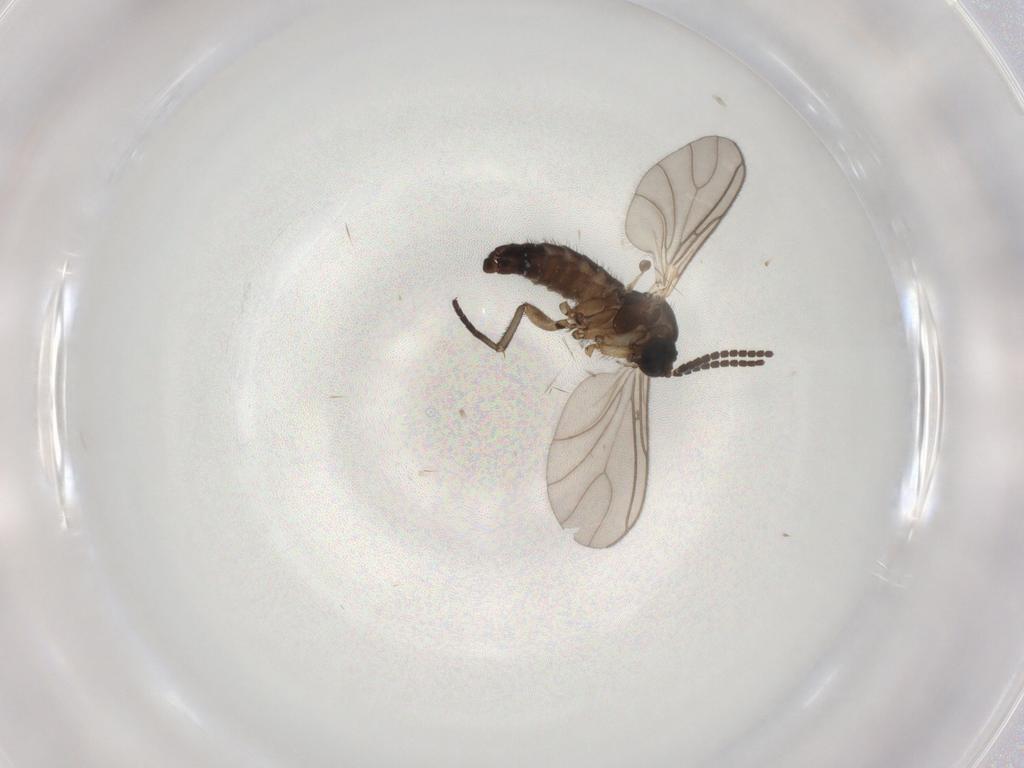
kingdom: Animalia
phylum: Arthropoda
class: Insecta
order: Diptera
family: Sciaridae
